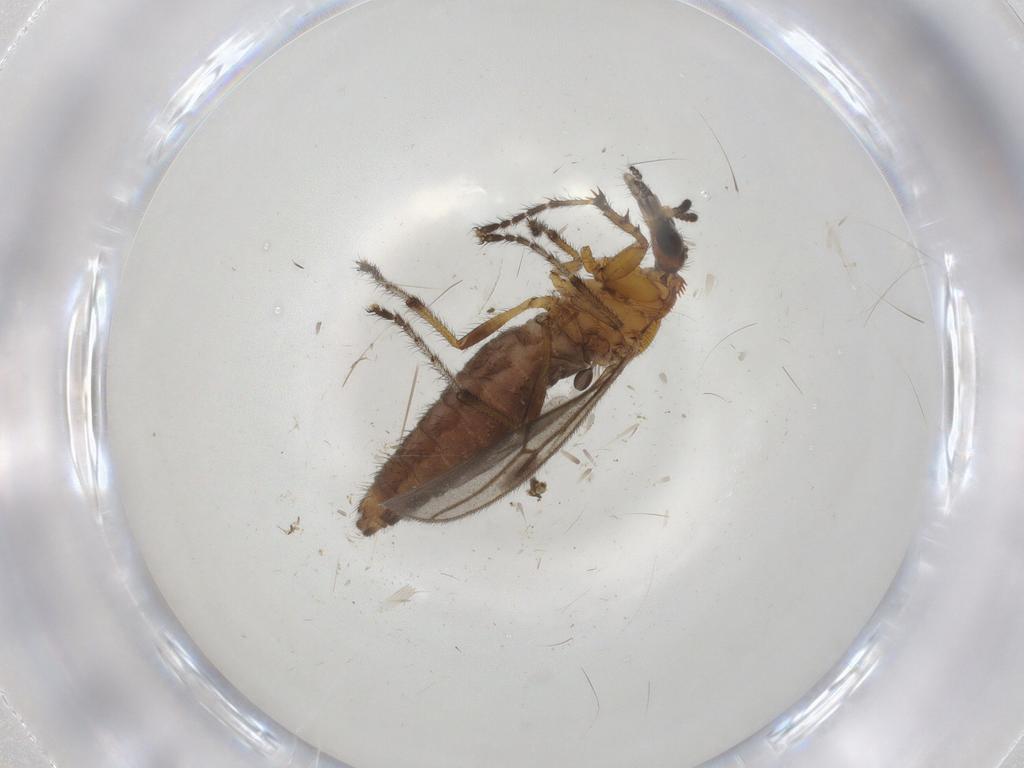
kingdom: Animalia
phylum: Arthropoda
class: Insecta
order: Diptera
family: Bibionidae
